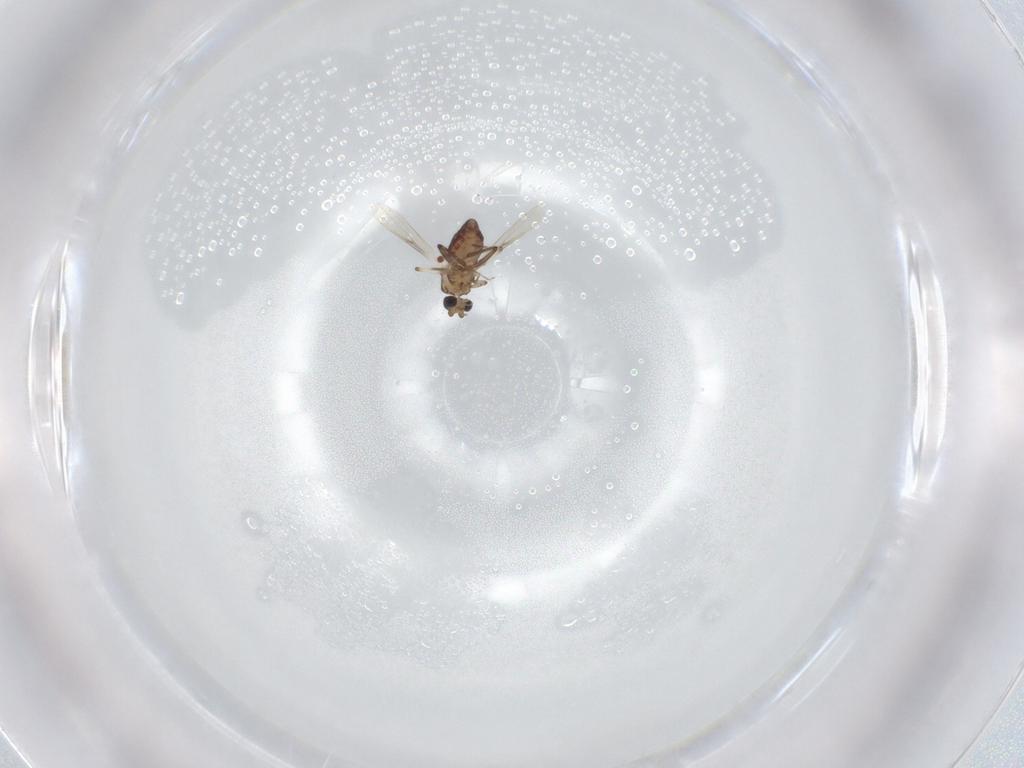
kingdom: Animalia
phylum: Arthropoda
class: Insecta
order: Diptera
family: Ceratopogonidae
